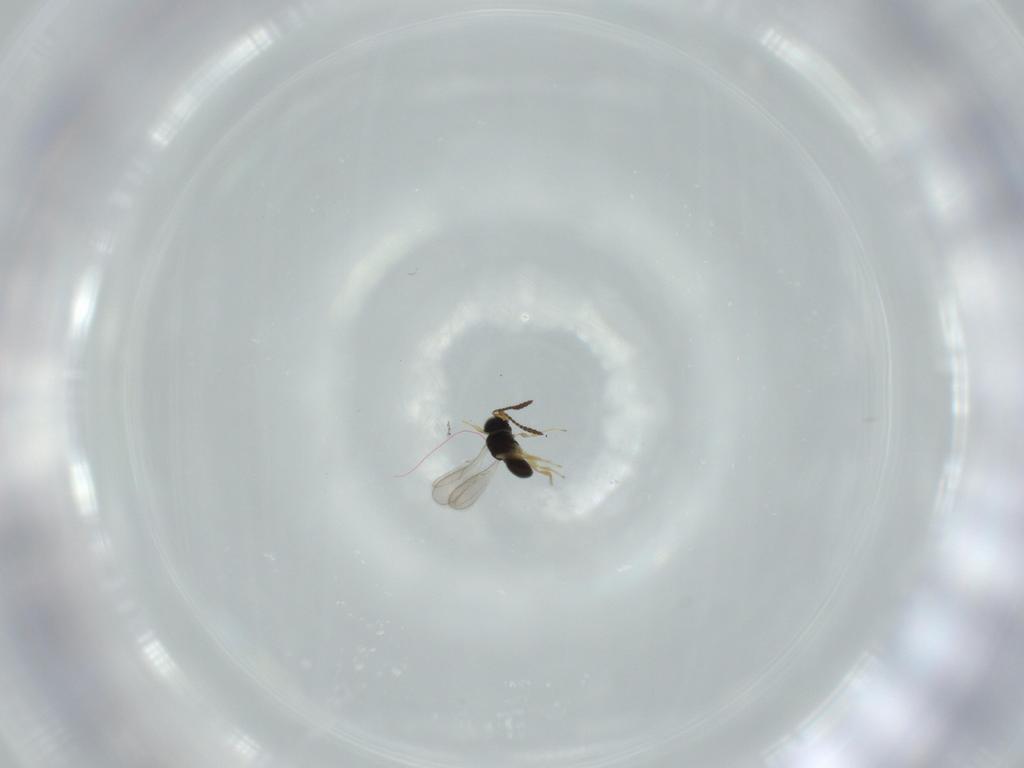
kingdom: Animalia
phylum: Arthropoda
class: Insecta
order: Hymenoptera
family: Scelionidae
